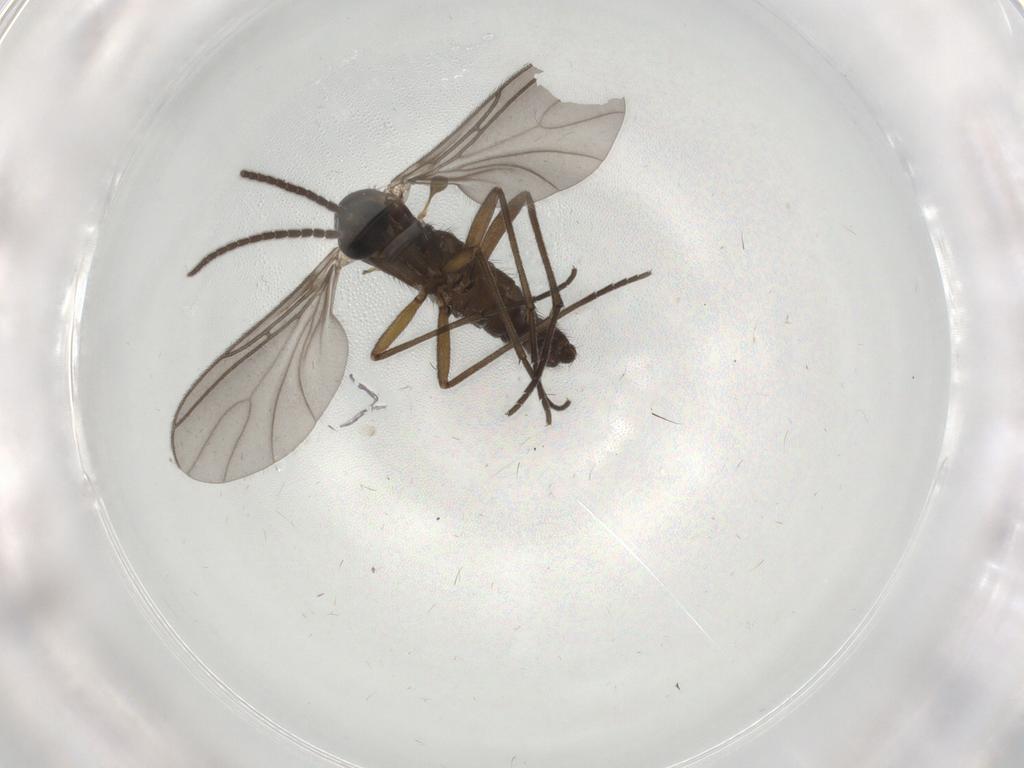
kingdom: Animalia
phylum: Arthropoda
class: Insecta
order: Diptera
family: Sciaridae
